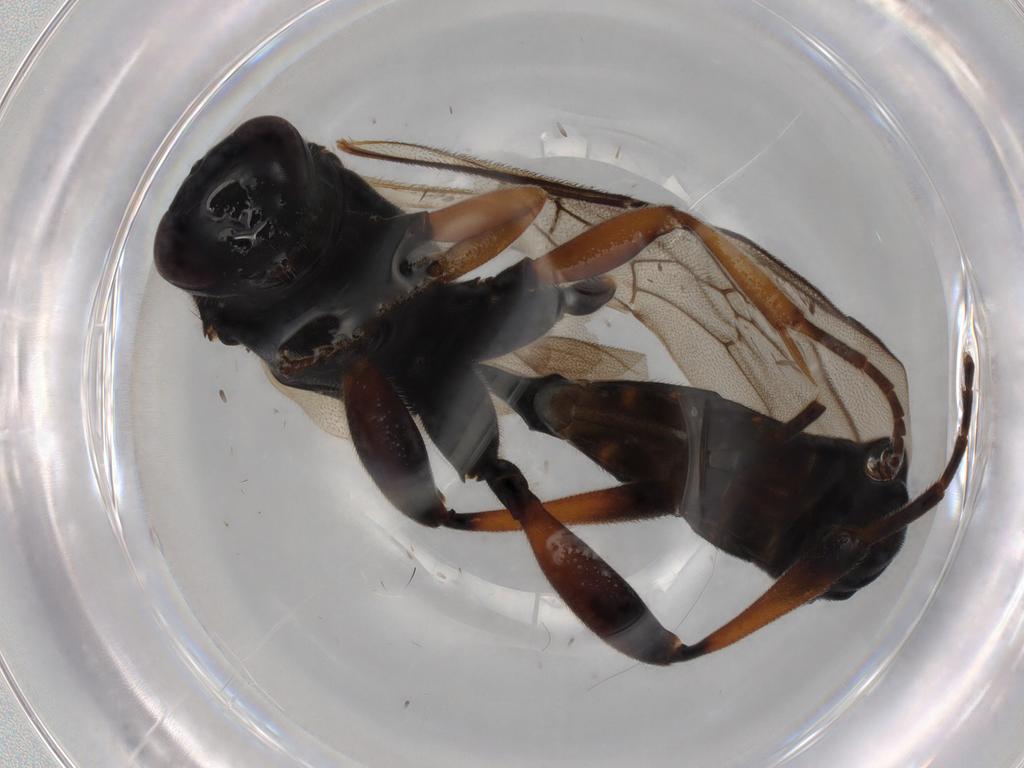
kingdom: Animalia
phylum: Arthropoda
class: Insecta
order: Hymenoptera
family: Ichneumonidae
